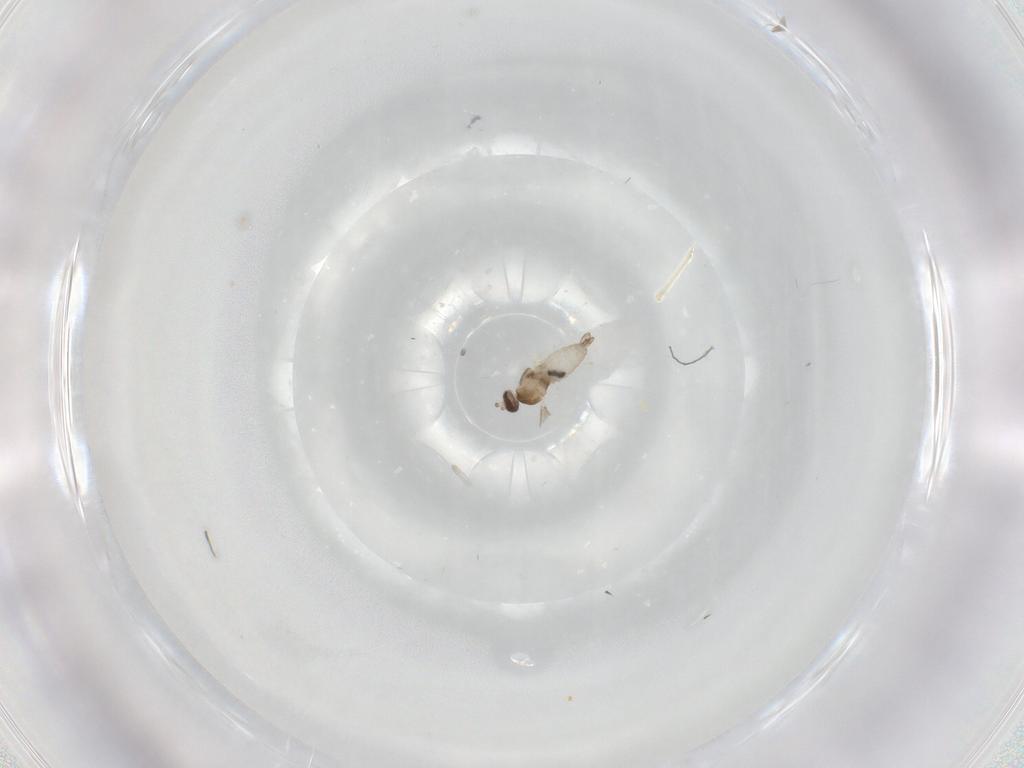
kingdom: Animalia
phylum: Arthropoda
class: Insecta
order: Diptera
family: Cecidomyiidae
